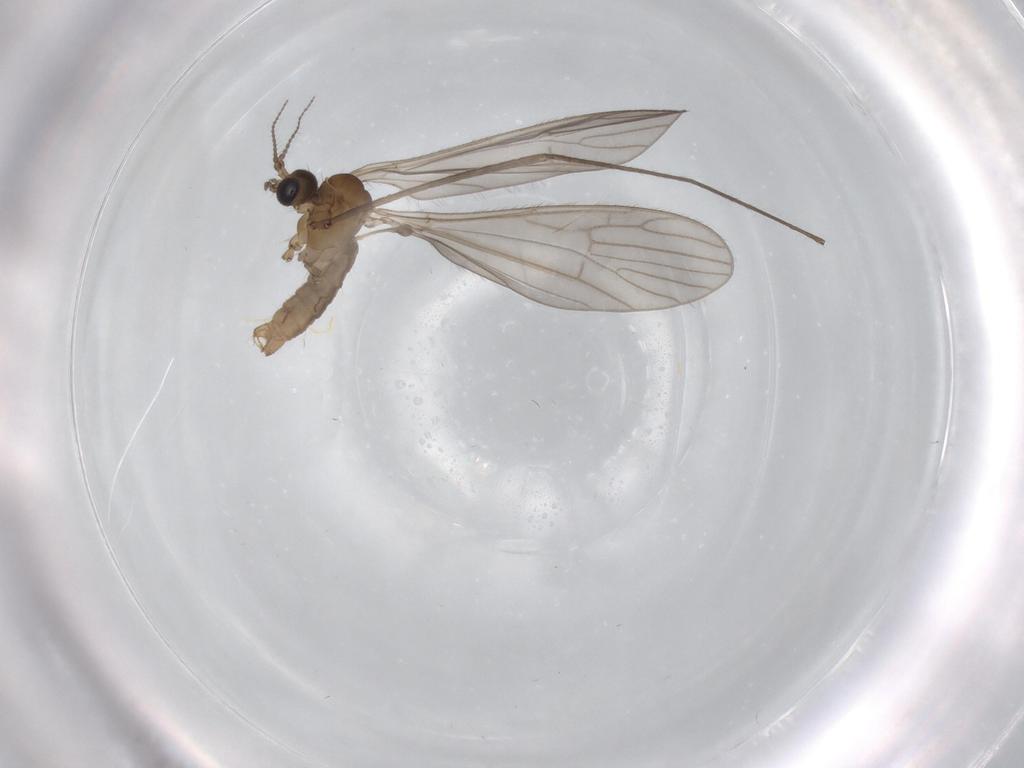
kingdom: Animalia
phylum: Arthropoda
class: Insecta
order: Diptera
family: Chironomidae
